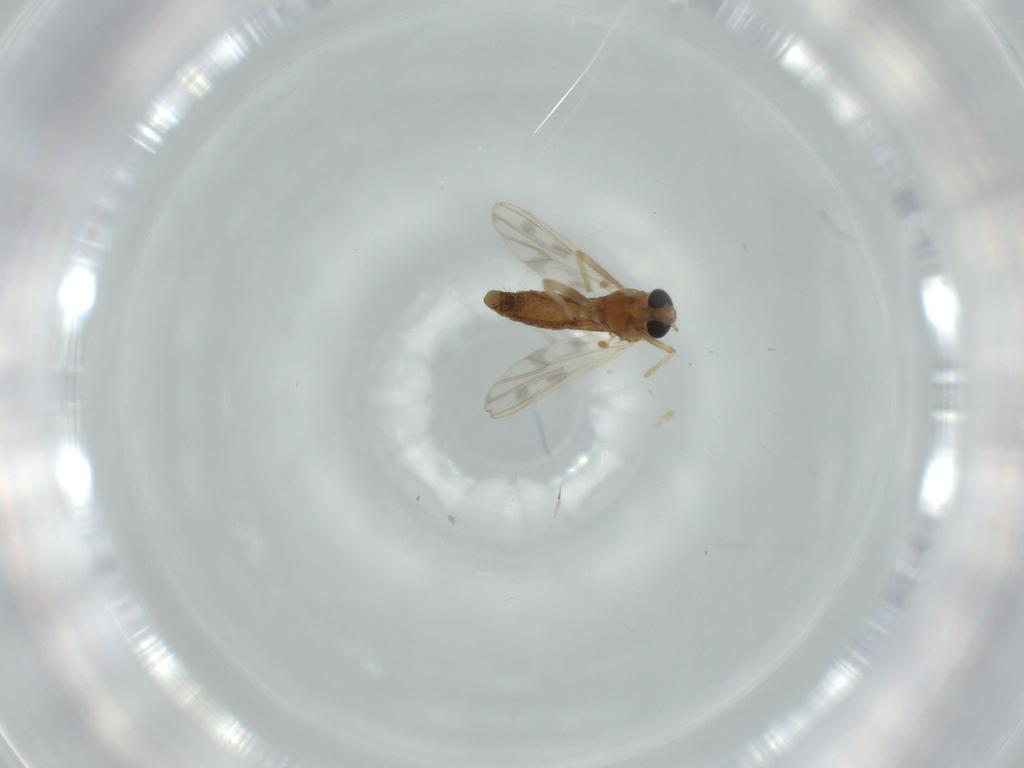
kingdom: Animalia
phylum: Arthropoda
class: Insecta
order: Diptera
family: Chironomidae
